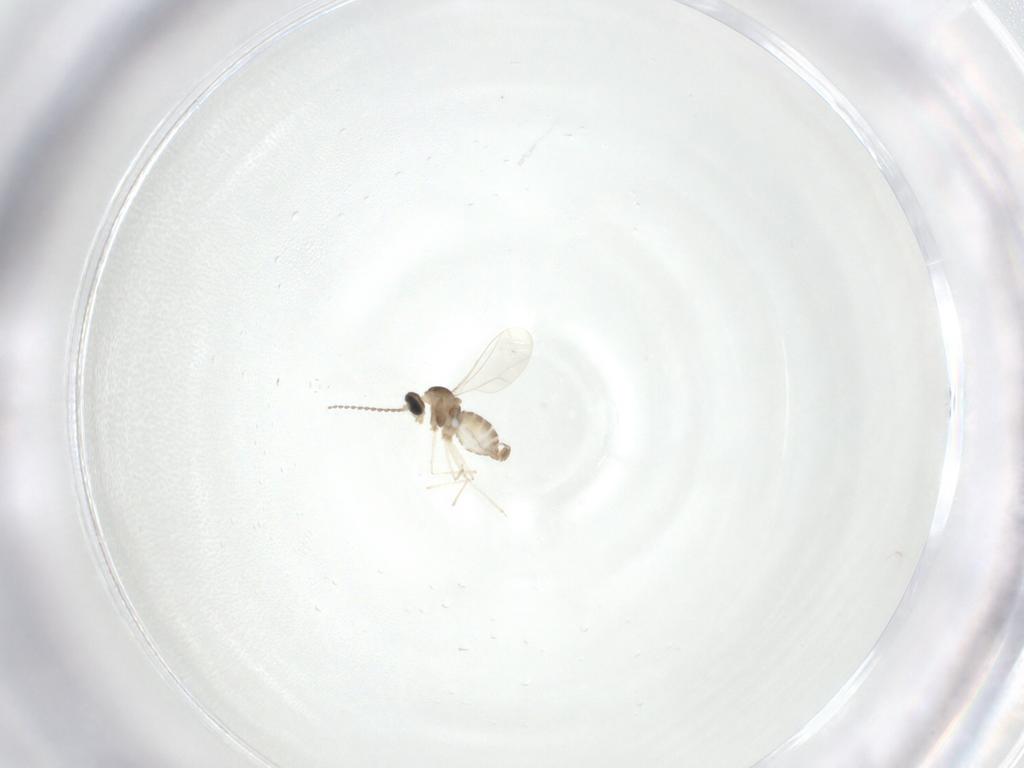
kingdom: Animalia
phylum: Arthropoda
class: Insecta
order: Diptera
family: Cecidomyiidae
